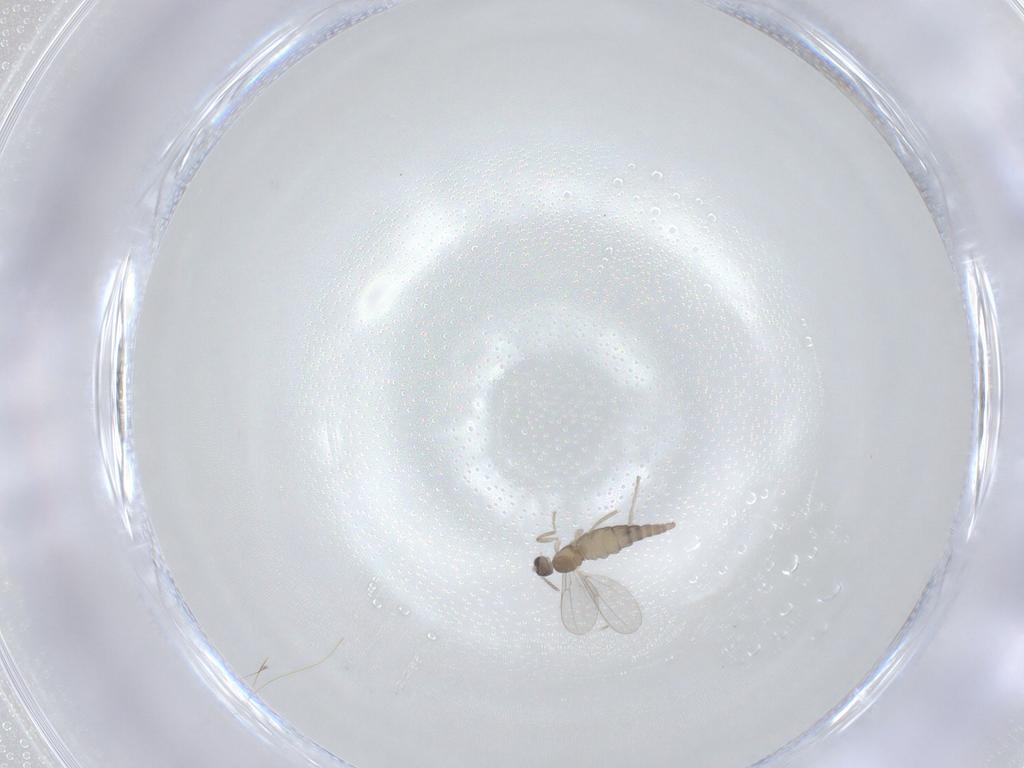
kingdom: Animalia
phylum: Arthropoda
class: Insecta
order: Diptera
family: Cecidomyiidae
